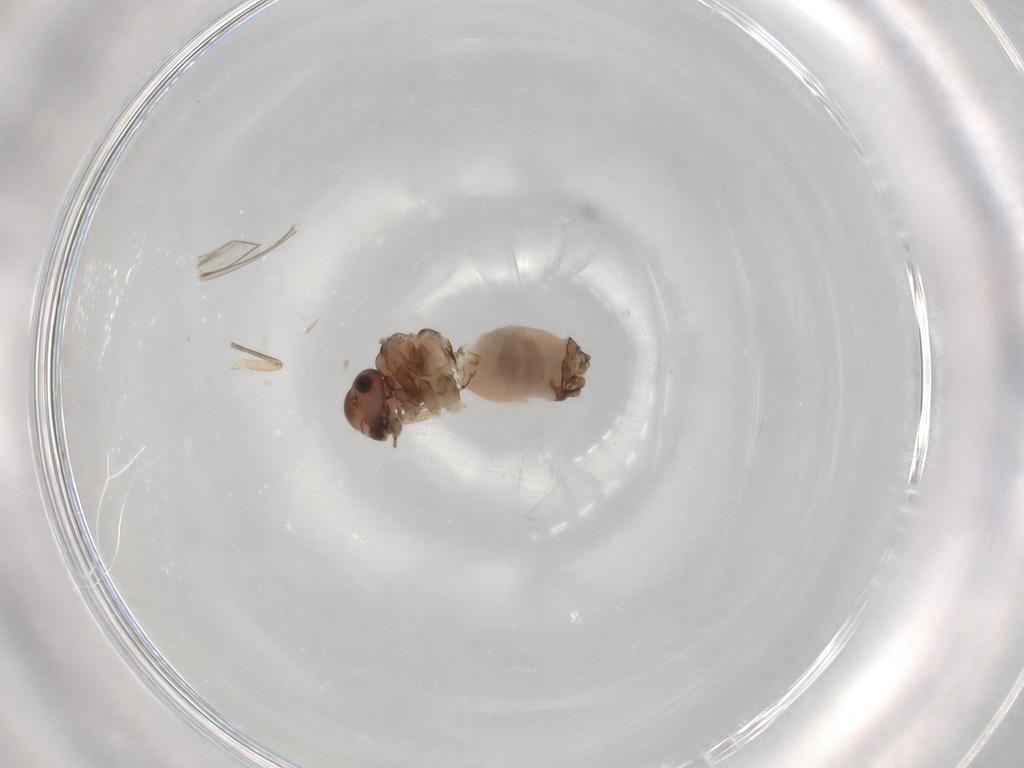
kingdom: Animalia
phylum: Arthropoda
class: Insecta
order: Psocodea
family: Peripsocidae
